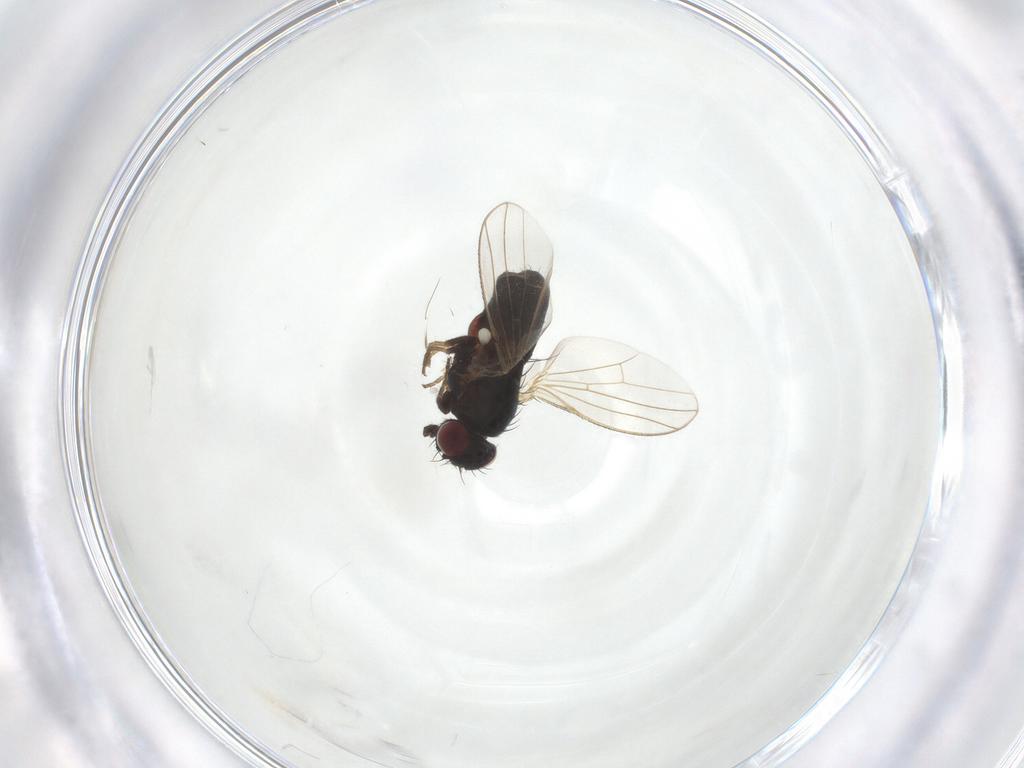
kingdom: Animalia
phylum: Arthropoda
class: Insecta
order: Diptera
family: Carnidae
